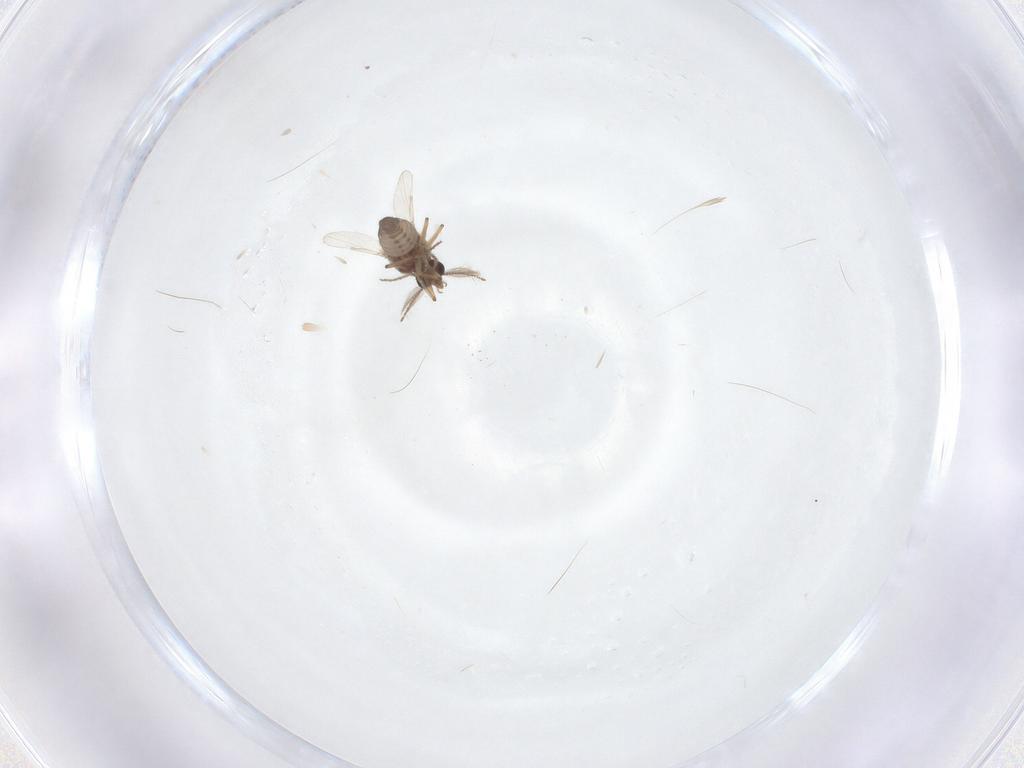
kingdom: Animalia
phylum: Arthropoda
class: Insecta
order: Diptera
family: Ceratopogonidae
